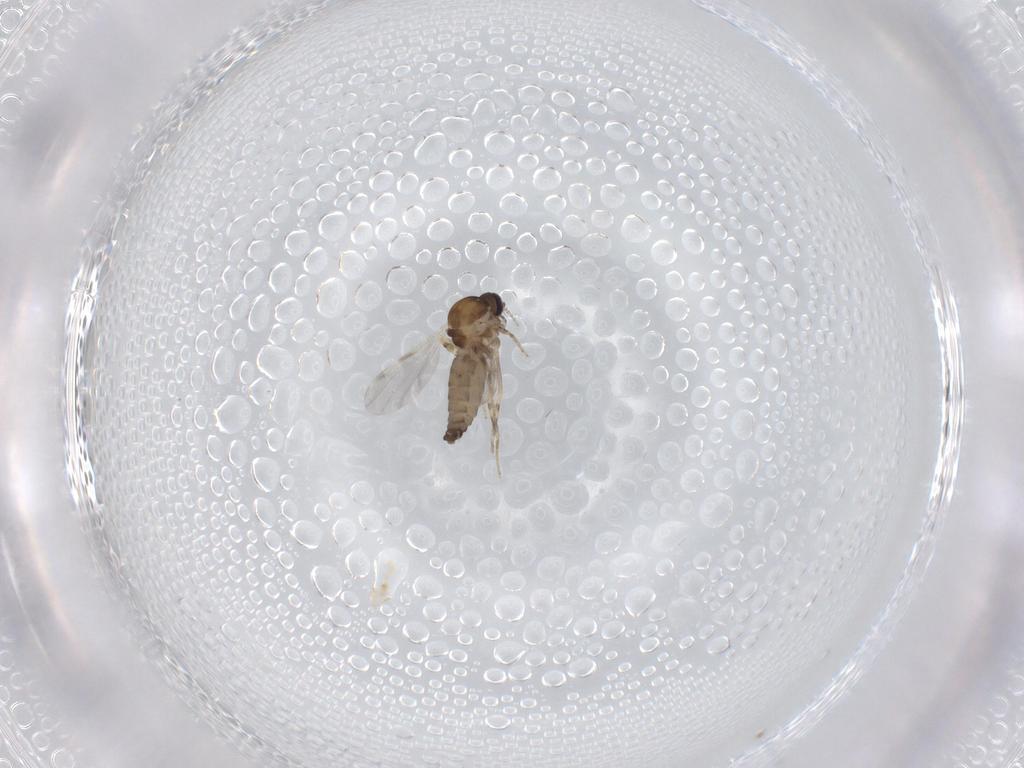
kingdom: Animalia
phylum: Arthropoda
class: Insecta
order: Diptera
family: Ceratopogonidae
